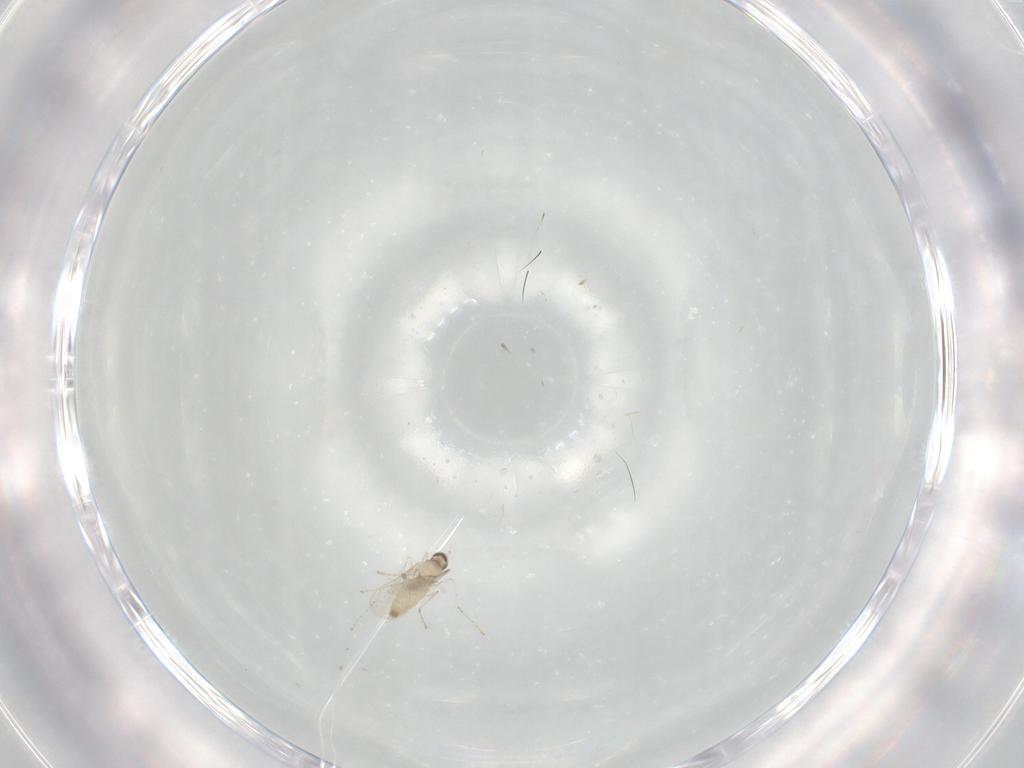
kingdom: Animalia
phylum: Arthropoda
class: Insecta
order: Diptera
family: Cecidomyiidae
